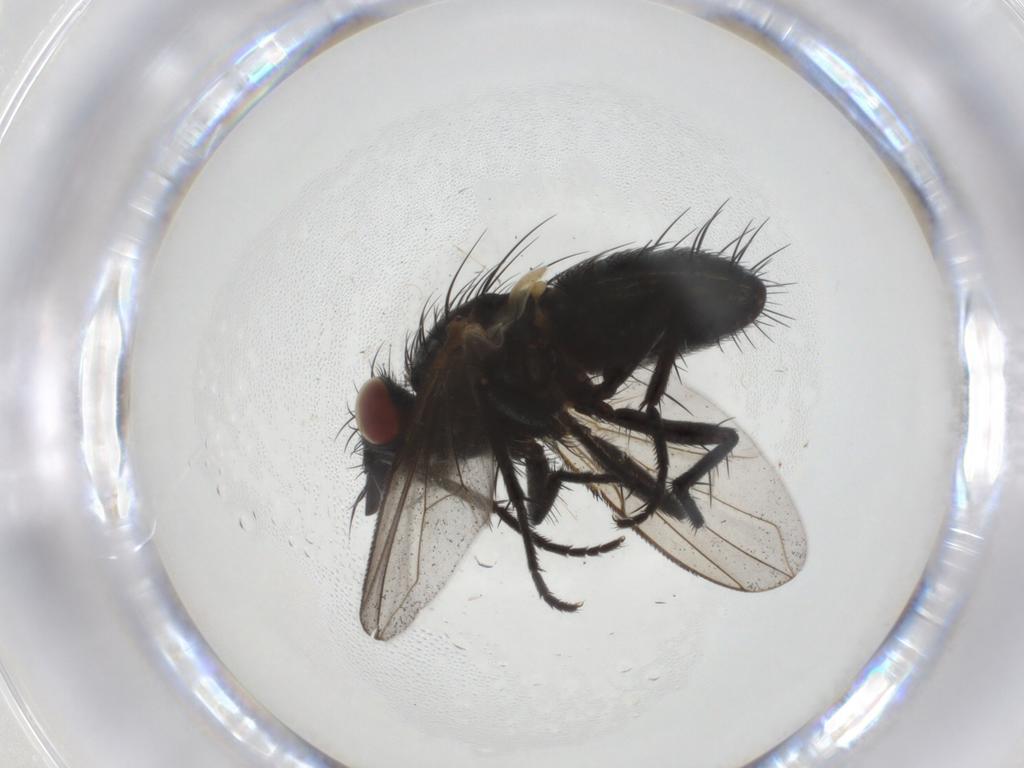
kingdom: Animalia
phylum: Arthropoda
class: Insecta
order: Diptera
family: Tachinidae
